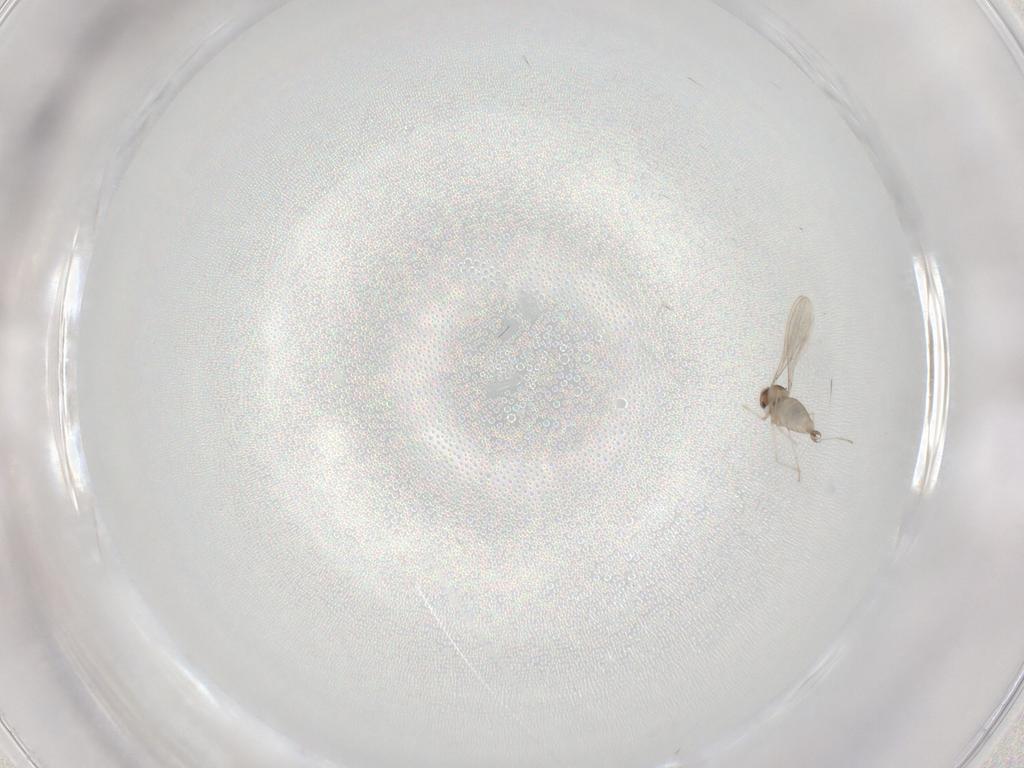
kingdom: Animalia
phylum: Arthropoda
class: Insecta
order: Diptera
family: Cecidomyiidae
